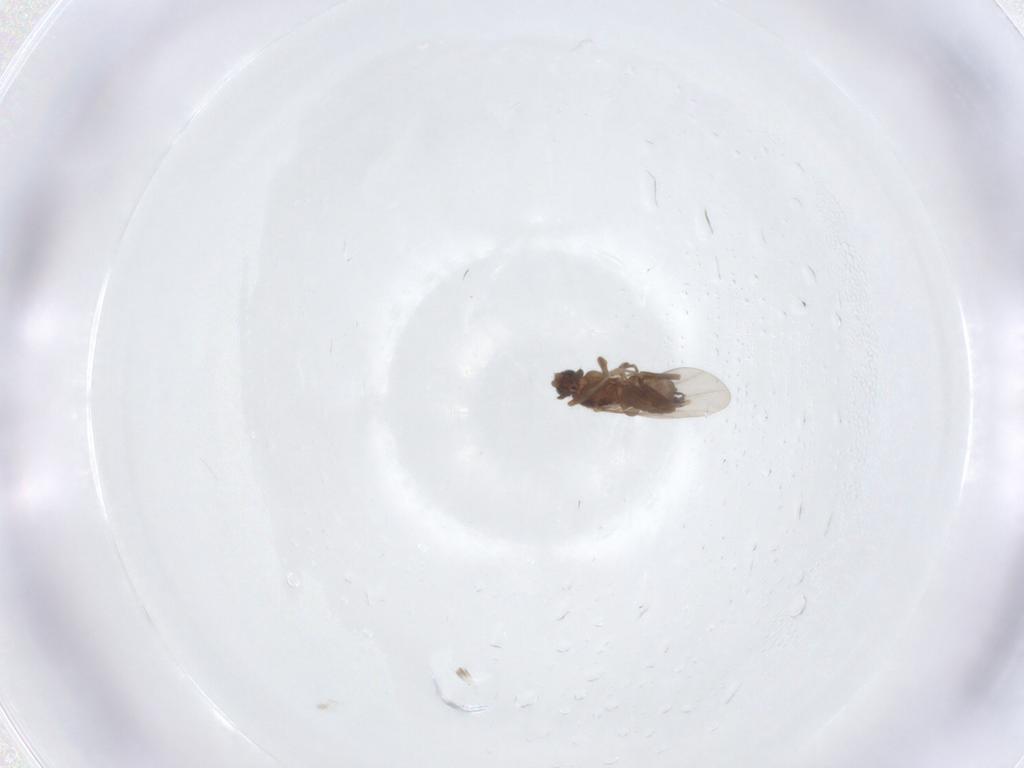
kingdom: Animalia
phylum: Arthropoda
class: Insecta
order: Diptera
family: Phoridae
